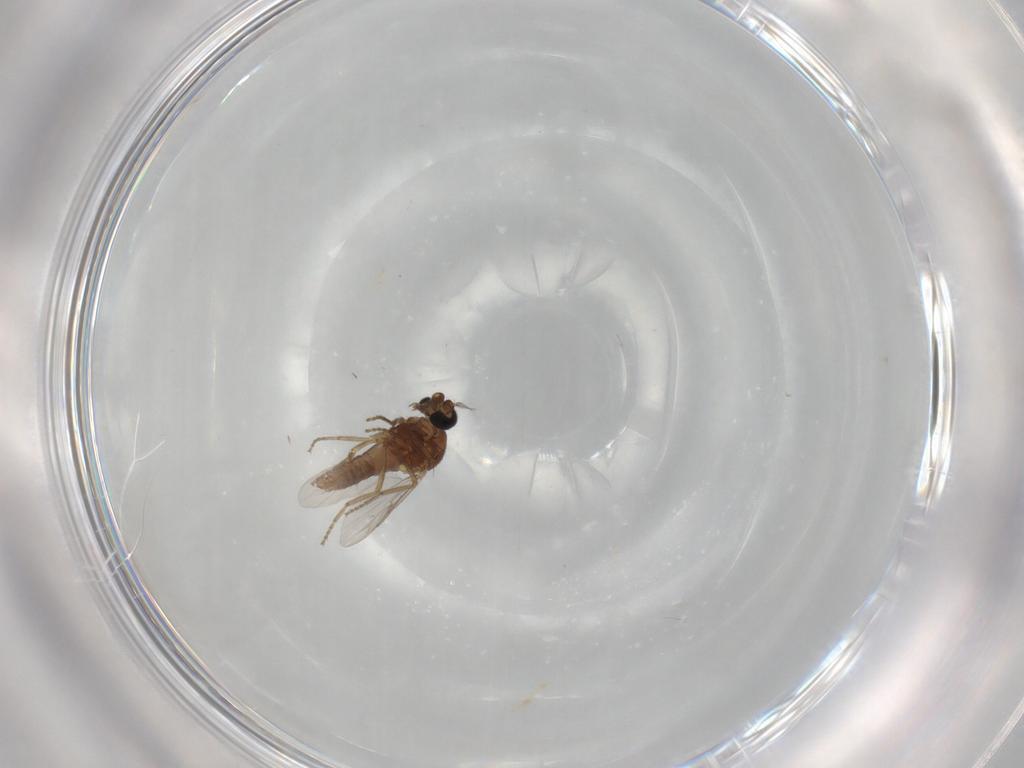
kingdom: Animalia
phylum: Arthropoda
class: Insecta
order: Diptera
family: Ceratopogonidae
